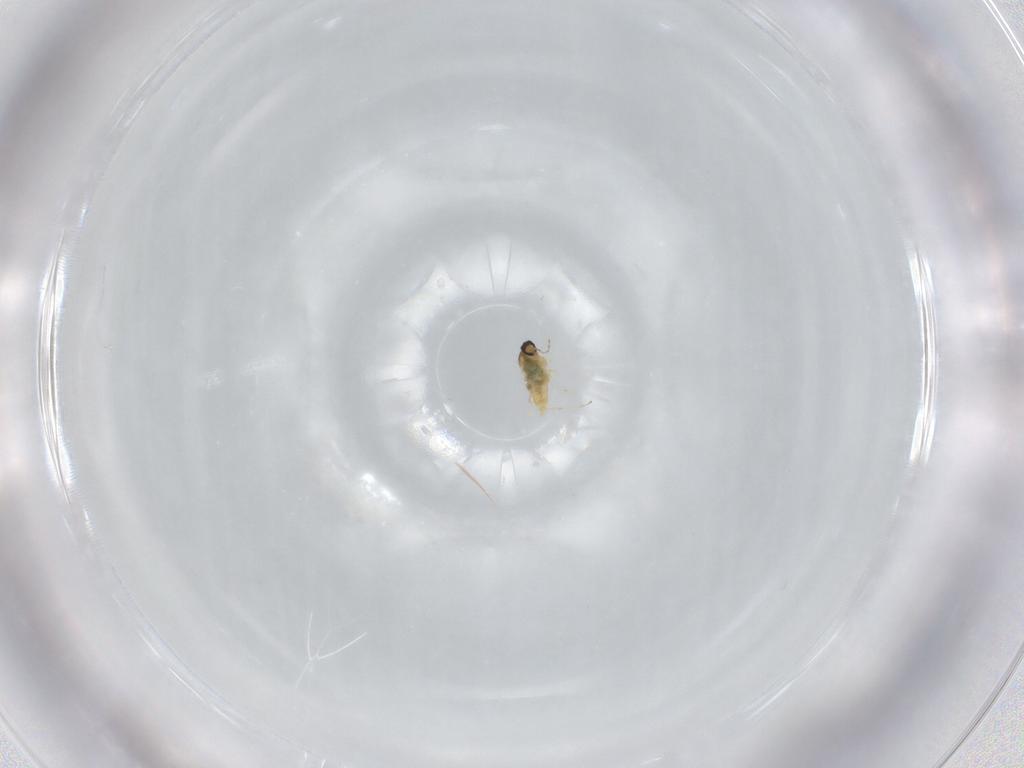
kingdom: Animalia
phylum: Arthropoda
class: Insecta
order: Diptera
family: Cecidomyiidae
